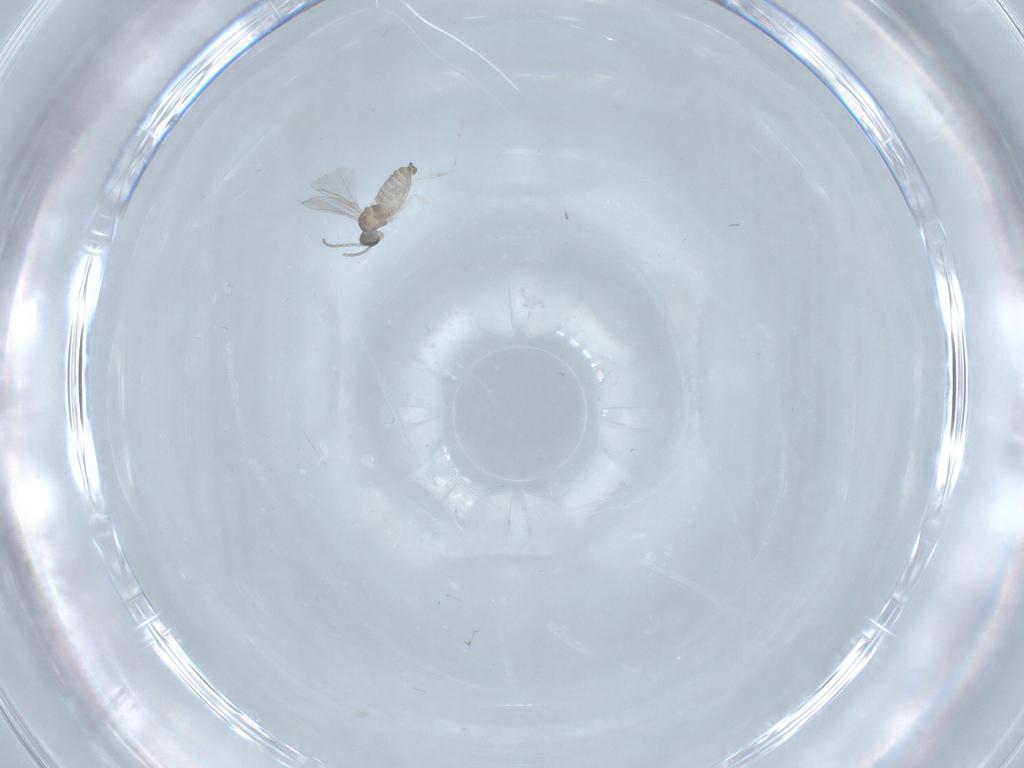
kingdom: Animalia
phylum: Arthropoda
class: Insecta
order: Diptera
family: Cecidomyiidae
